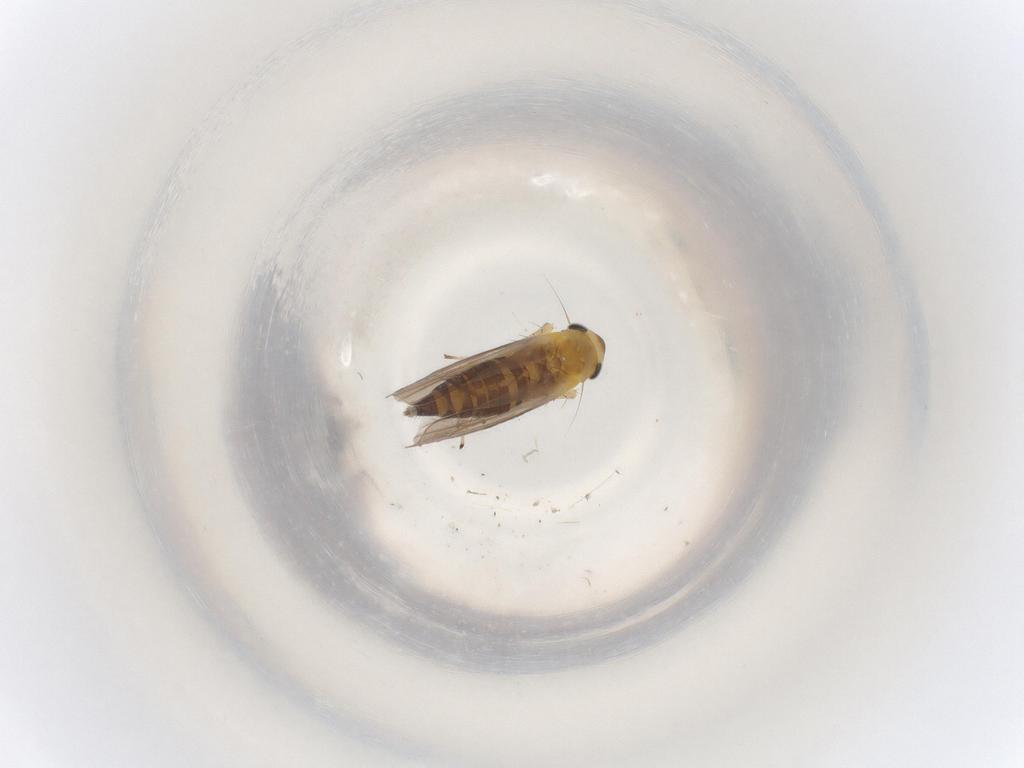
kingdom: Animalia
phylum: Arthropoda
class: Insecta
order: Hemiptera
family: Cicadellidae
